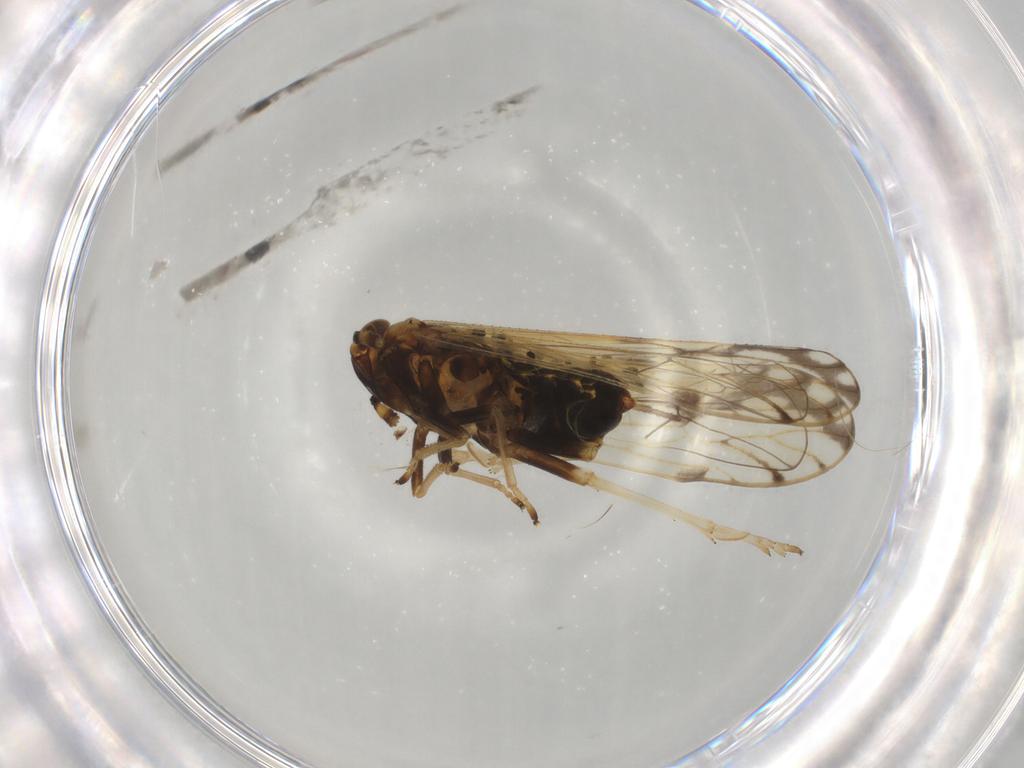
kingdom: Animalia
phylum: Arthropoda
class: Insecta
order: Hemiptera
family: Delphacidae
